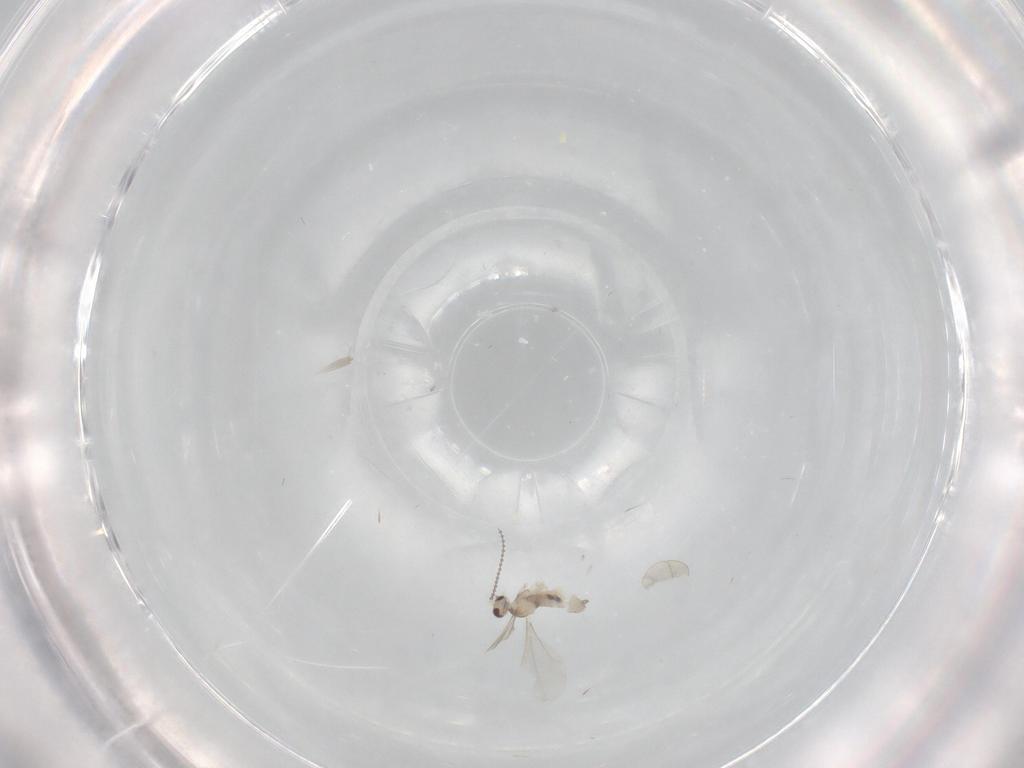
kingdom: Animalia
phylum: Arthropoda
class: Insecta
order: Diptera
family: Cecidomyiidae
